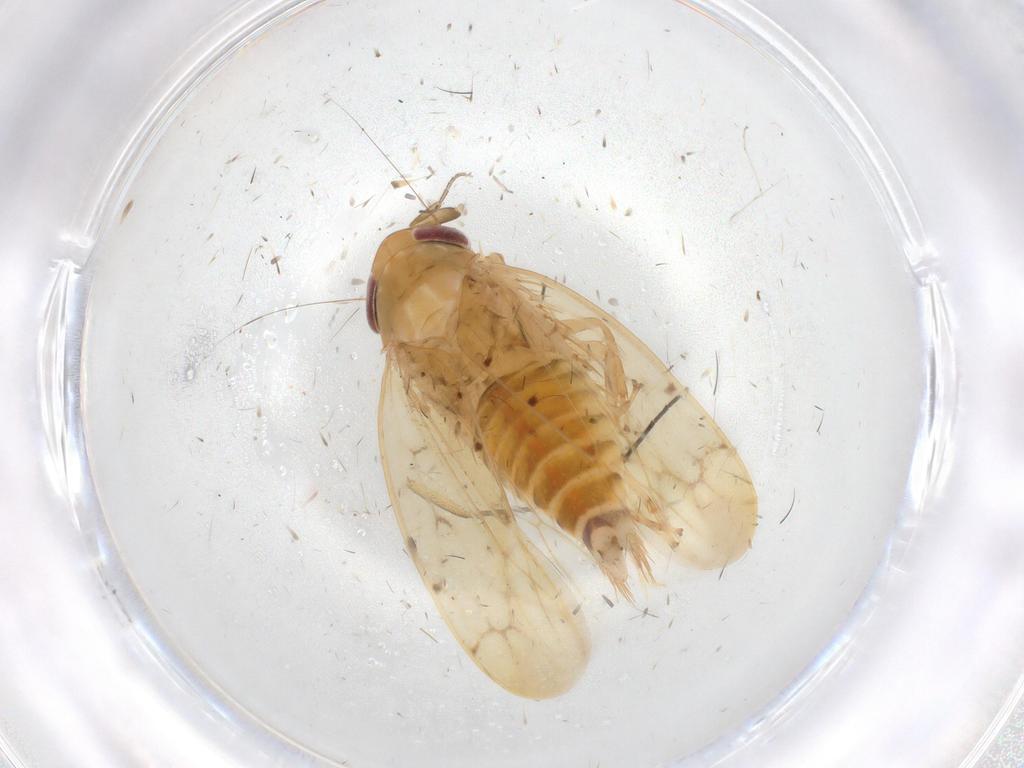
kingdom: Animalia
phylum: Arthropoda
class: Insecta
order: Hemiptera
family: Cicadellidae
